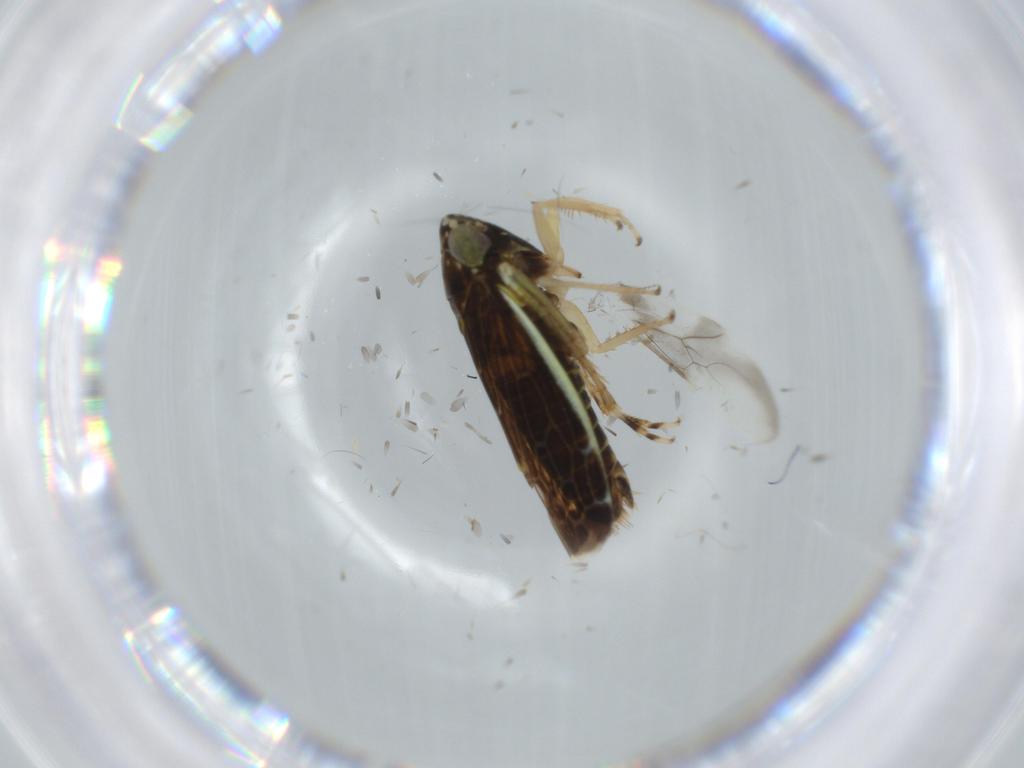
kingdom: Animalia
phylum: Arthropoda
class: Insecta
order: Hemiptera
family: Cicadellidae
